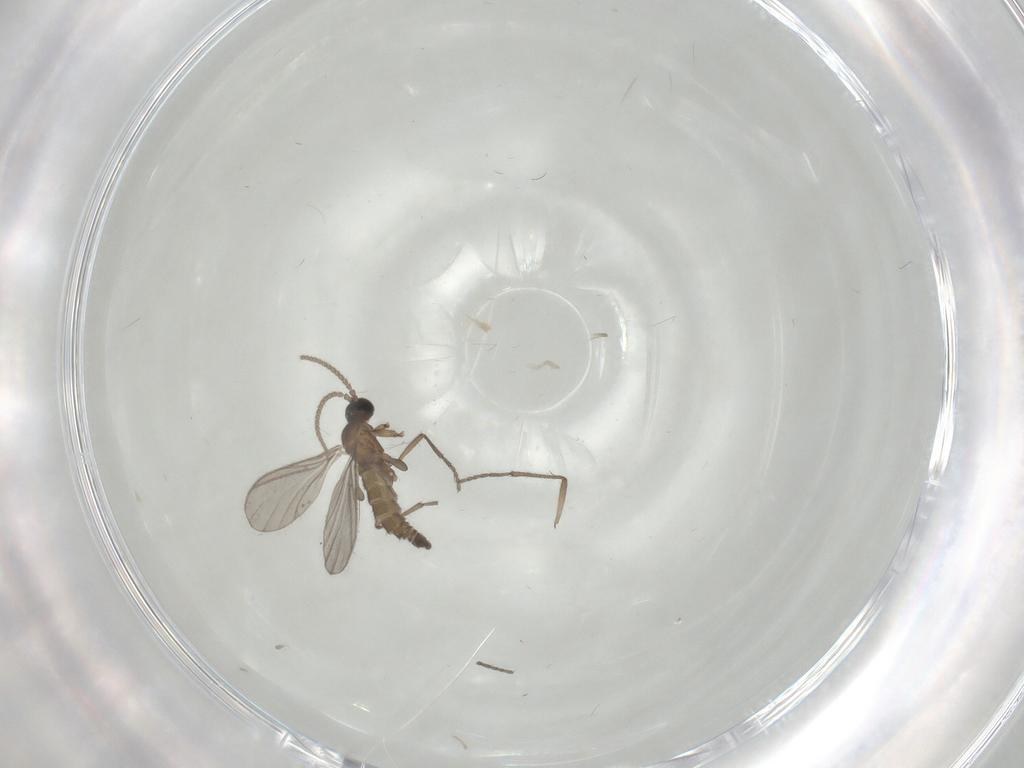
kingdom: Animalia
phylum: Arthropoda
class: Insecta
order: Diptera
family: Sciaridae
